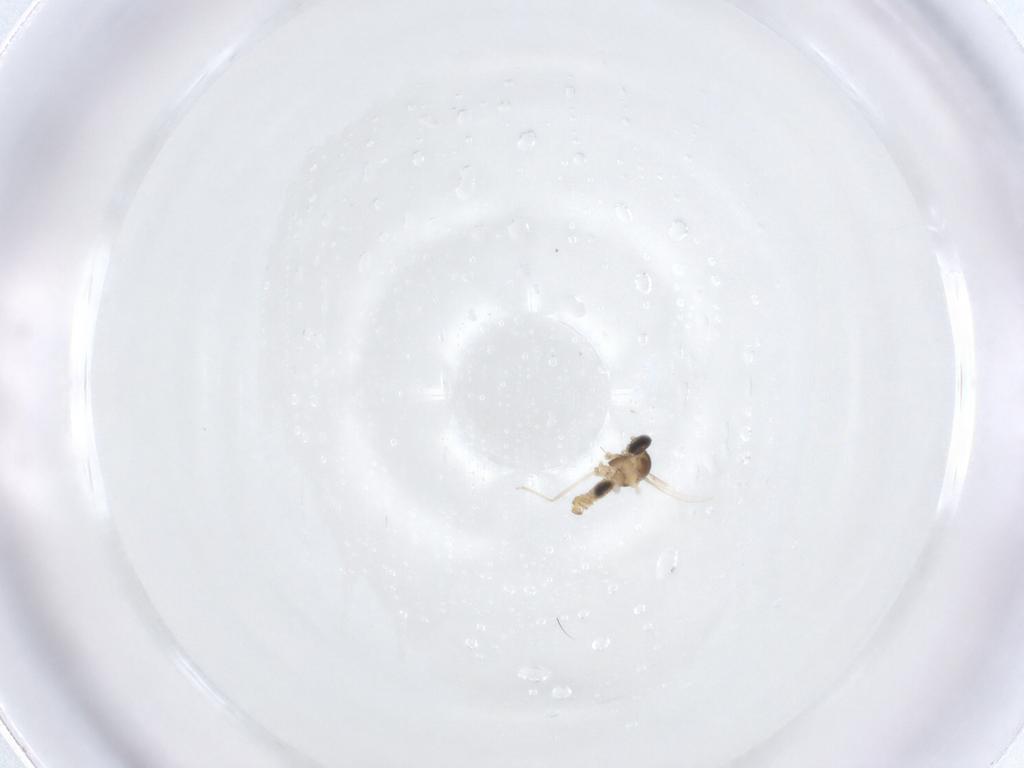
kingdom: Animalia
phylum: Arthropoda
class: Insecta
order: Diptera
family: Cecidomyiidae
